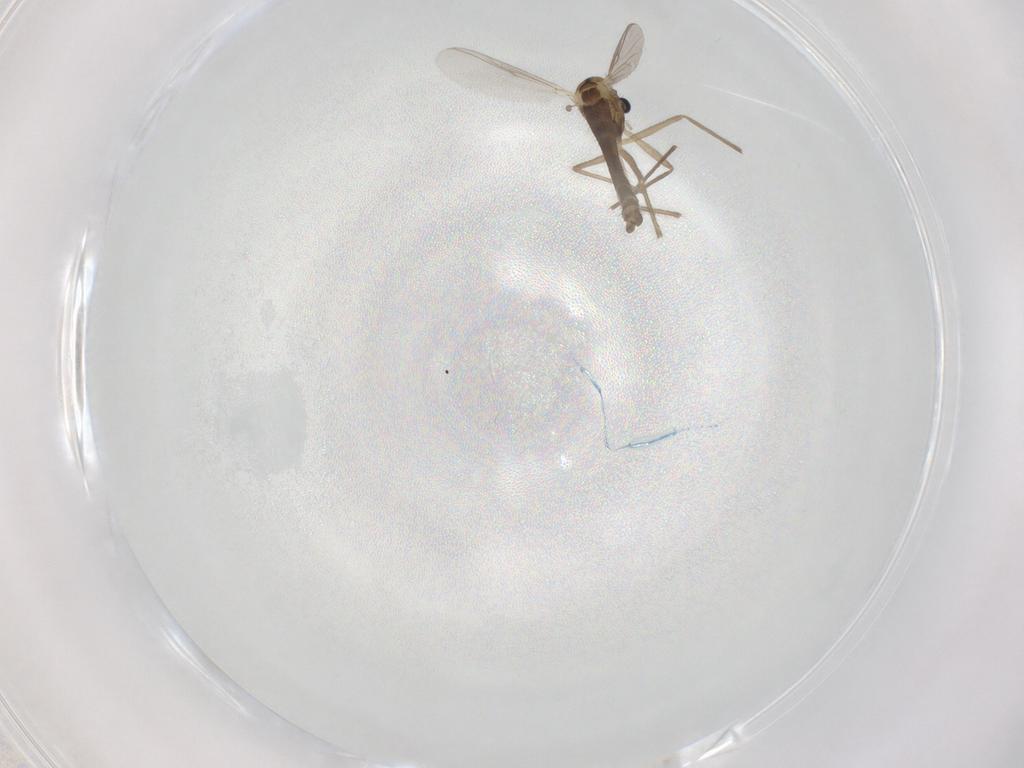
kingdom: Animalia
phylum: Arthropoda
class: Insecta
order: Diptera
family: Chironomidae
